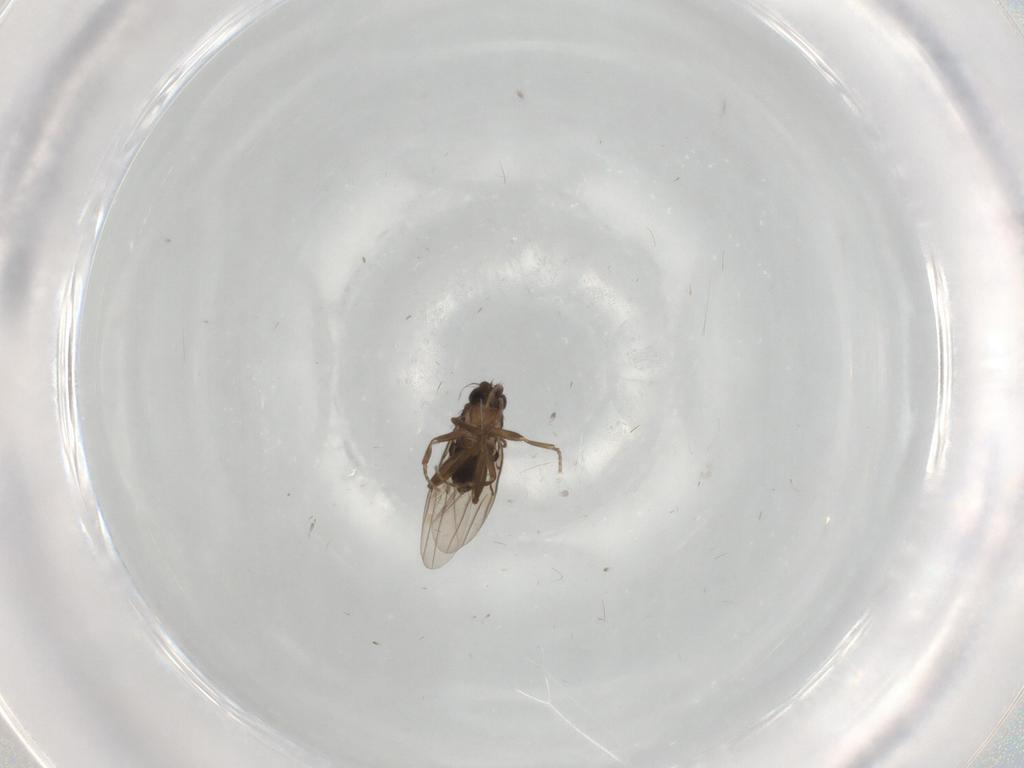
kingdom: Animalia
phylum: Arthropoda
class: Insecta
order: Diptera
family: Phoridae
